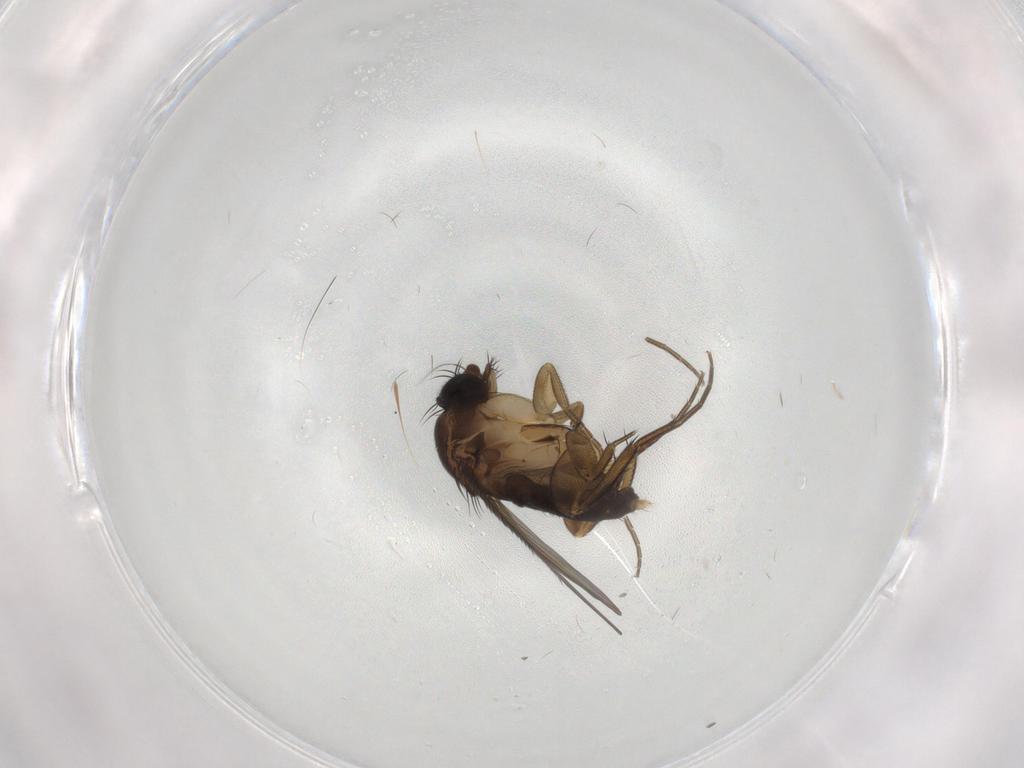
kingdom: Animalia
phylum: Arthropoda
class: Insecta
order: Diptera
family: Phoridae
